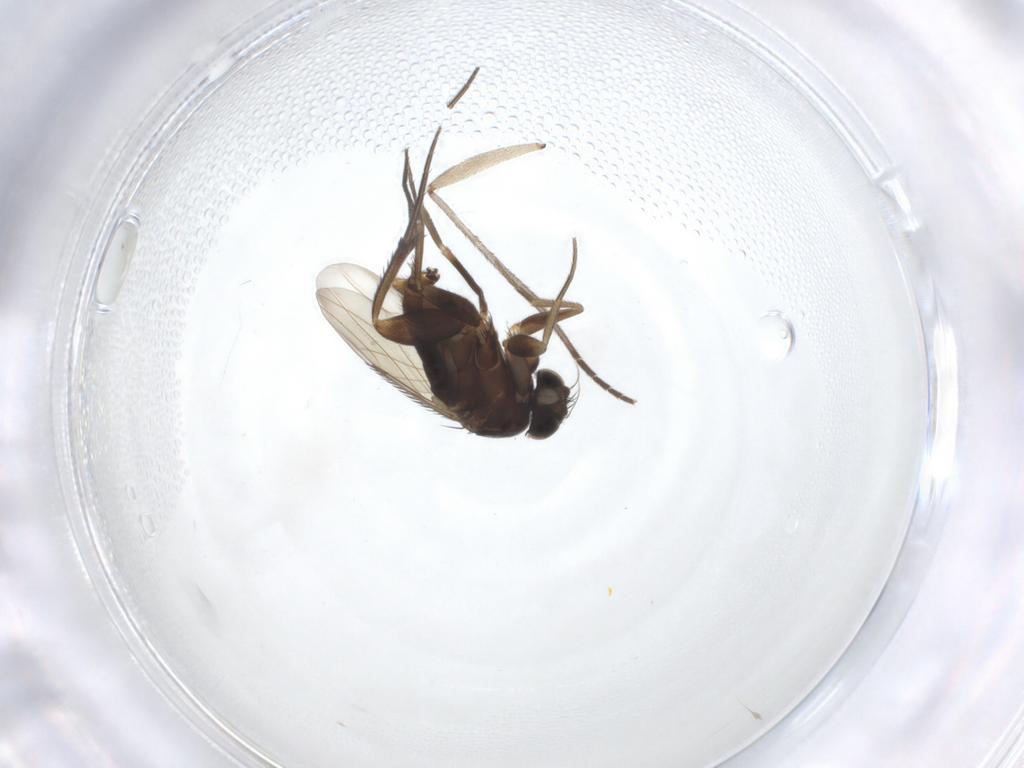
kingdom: Animalia
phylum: Arthropoda
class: Insecta
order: Diptera
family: Phoridae
